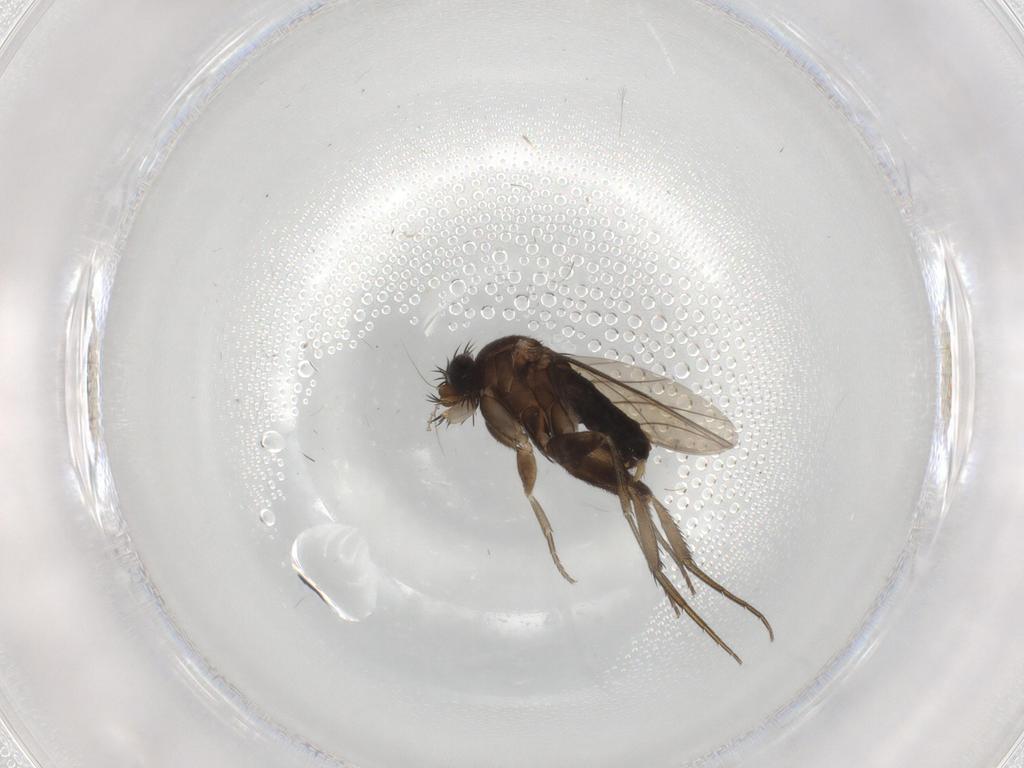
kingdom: Animalia
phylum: Arthropoda
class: Insecta
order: Diptera
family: Phoridae
